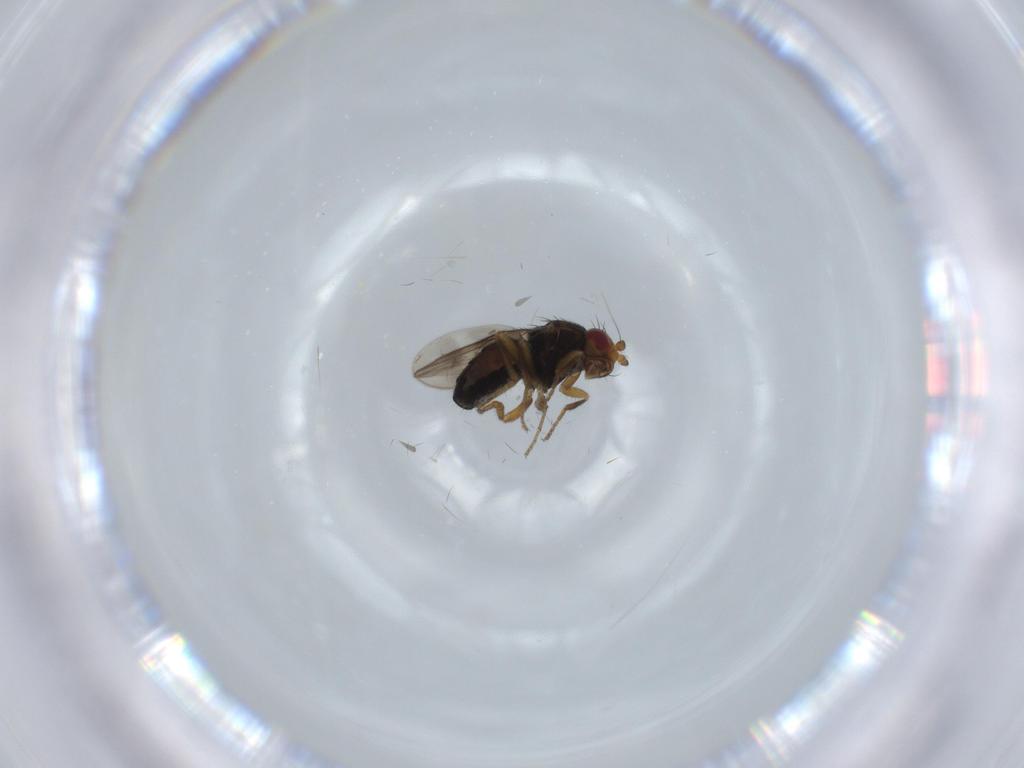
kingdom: Animalia
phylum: Arthropoda
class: Insecta
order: Diptera
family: Sphaeroceridae
